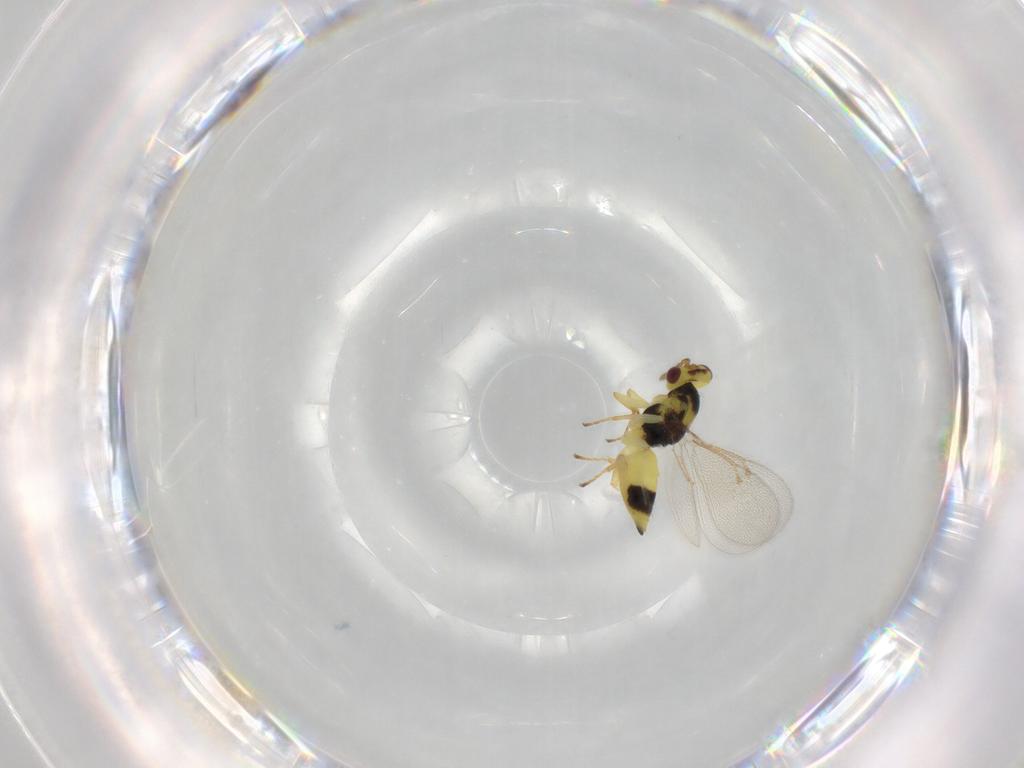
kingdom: Animalia
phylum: Arthropoda
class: Insecta
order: Hymenoptera
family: Eulophidae
